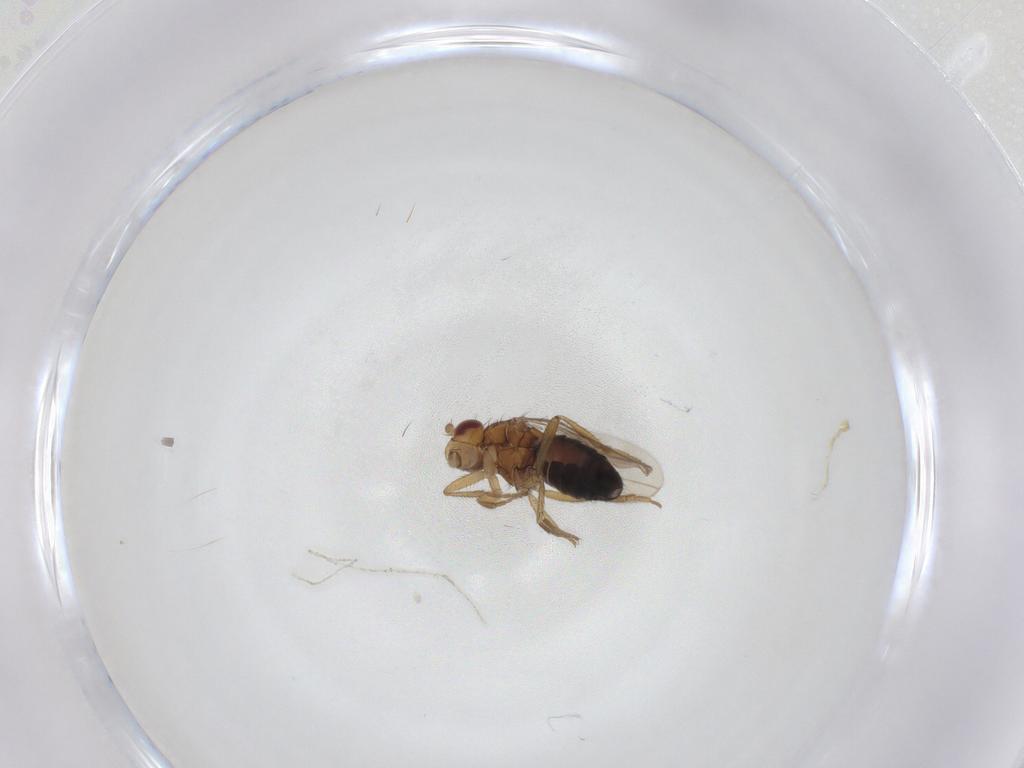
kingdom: Animalia
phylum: Arthropoda
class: Insecta
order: Diptera
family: Sphaeroceridae
